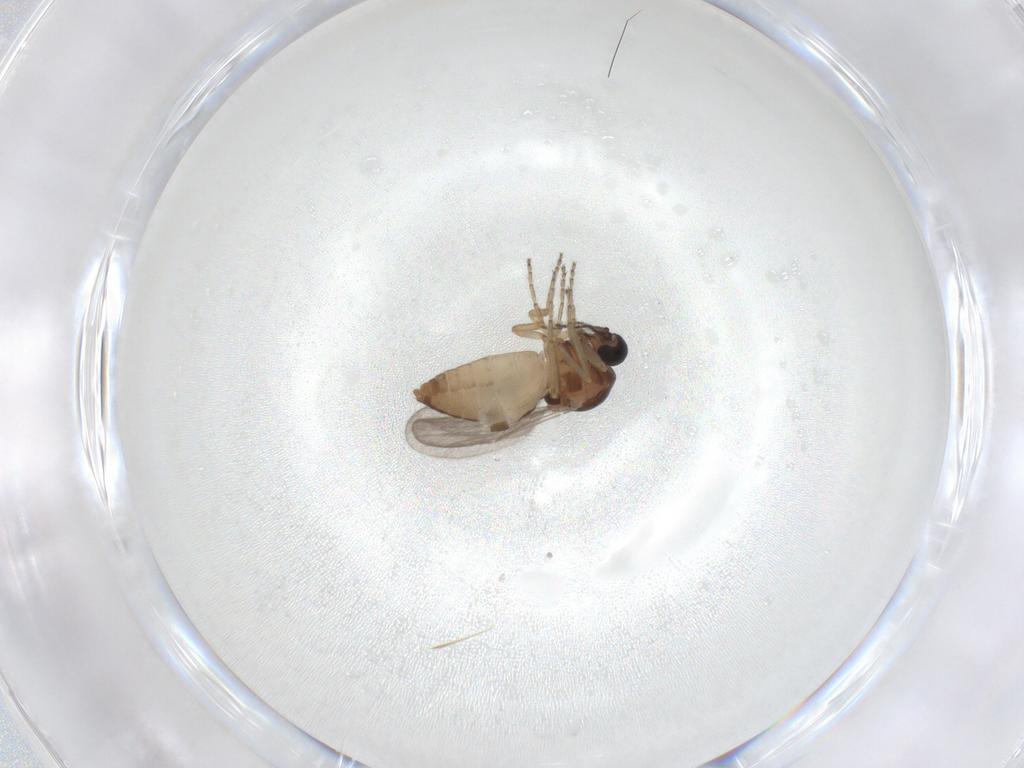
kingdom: Animalia
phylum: Arthropoda
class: Insecta
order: Diptera
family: Ceratopogonidae
